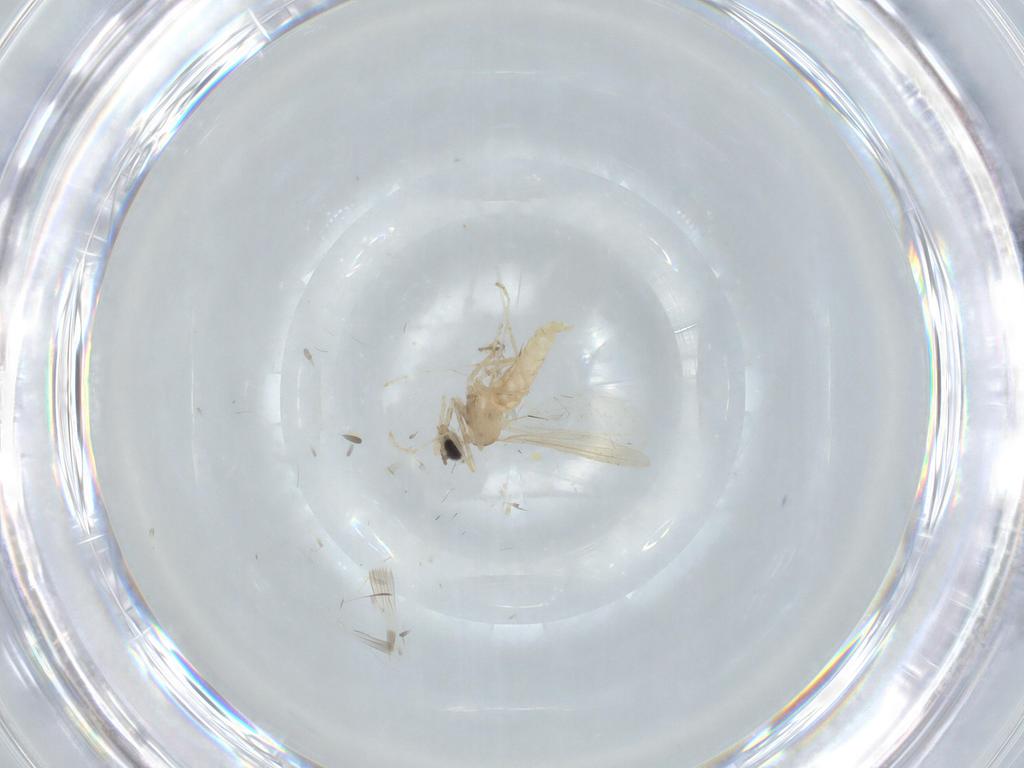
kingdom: Animalia
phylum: Arthropoda
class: Insecta
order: Diptera
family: Cecidomyiidae
